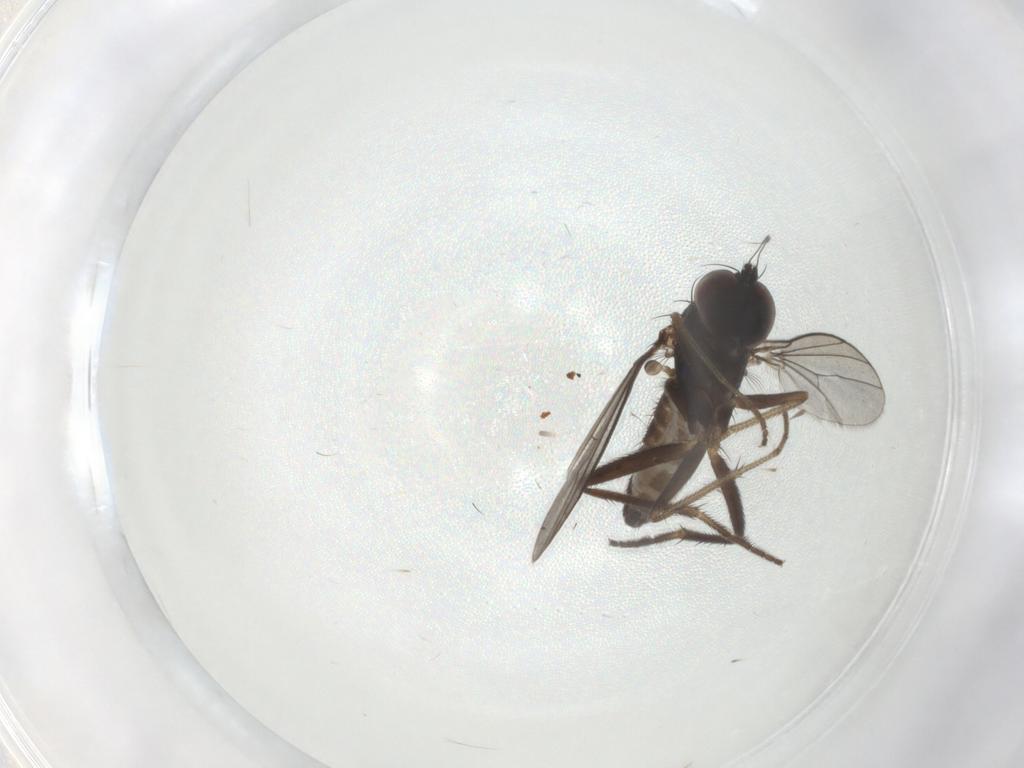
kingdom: Animalia
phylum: Arthropoda
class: Insecta
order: Diptera
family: Dolichopodidae
